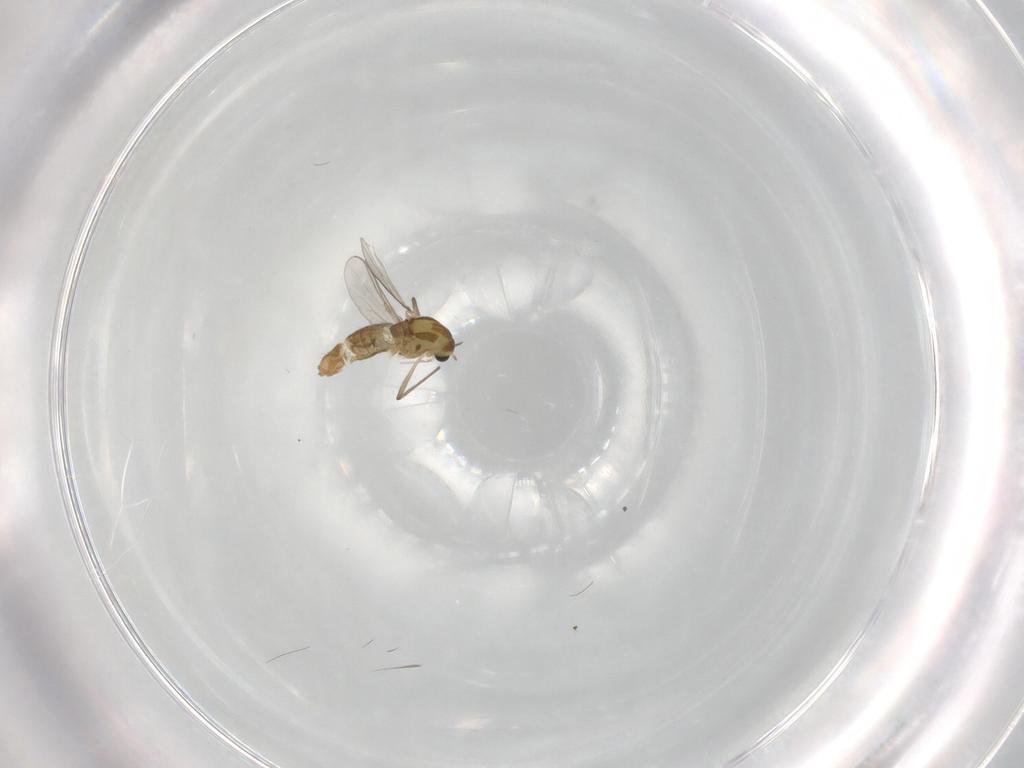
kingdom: Animalia
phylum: Arthropoda
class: Insecta
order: Diptera
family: Chironomidae
